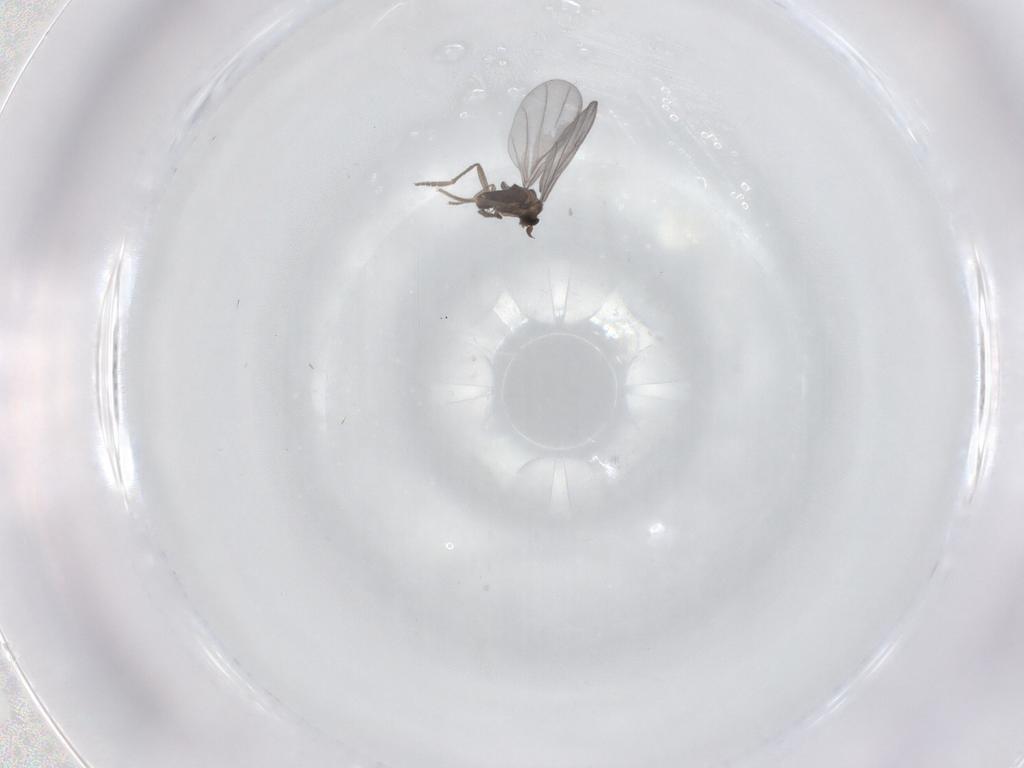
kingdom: Animalia
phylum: Arthropoda
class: Insecta
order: Diptera
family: Phoridae
